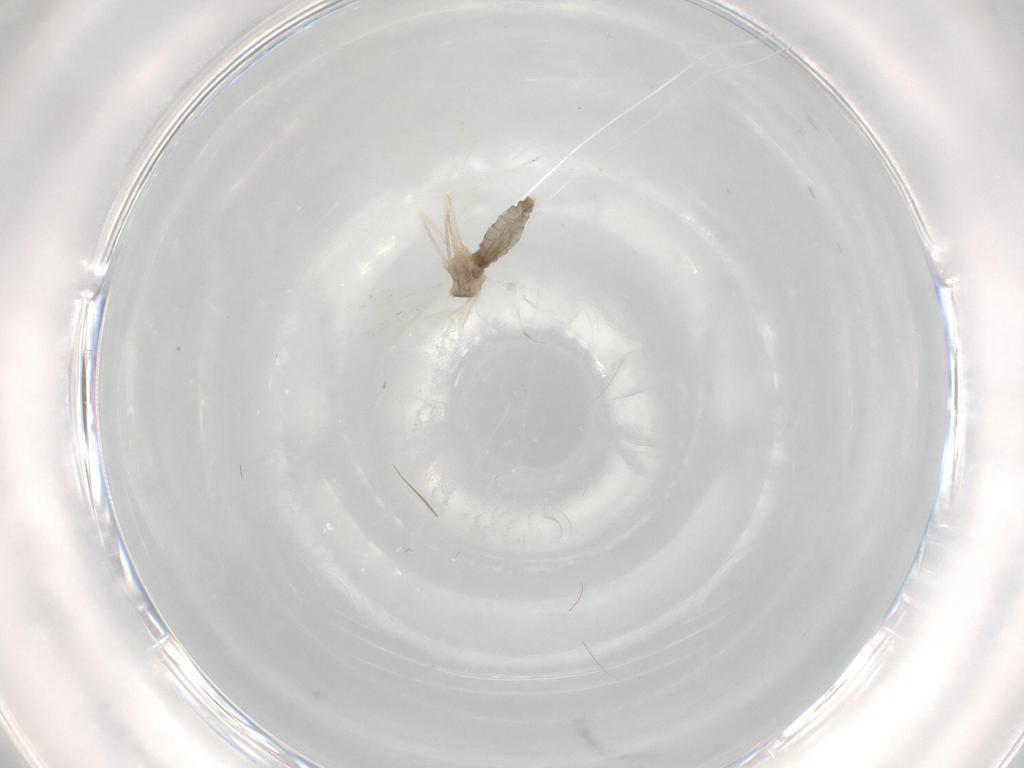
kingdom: Animalia
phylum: Arthropoda
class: Insecta
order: Diptera
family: Cecidomyiidae
